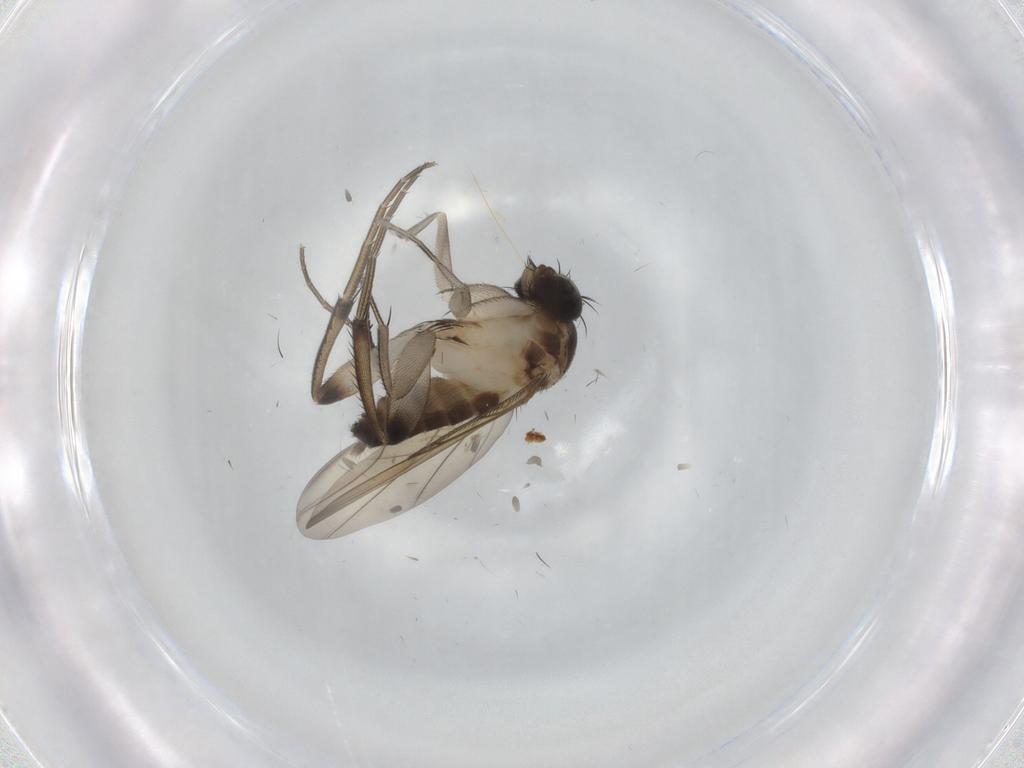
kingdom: Animalia
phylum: Arthropoda
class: Insecta
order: Diptera
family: Phoridae
